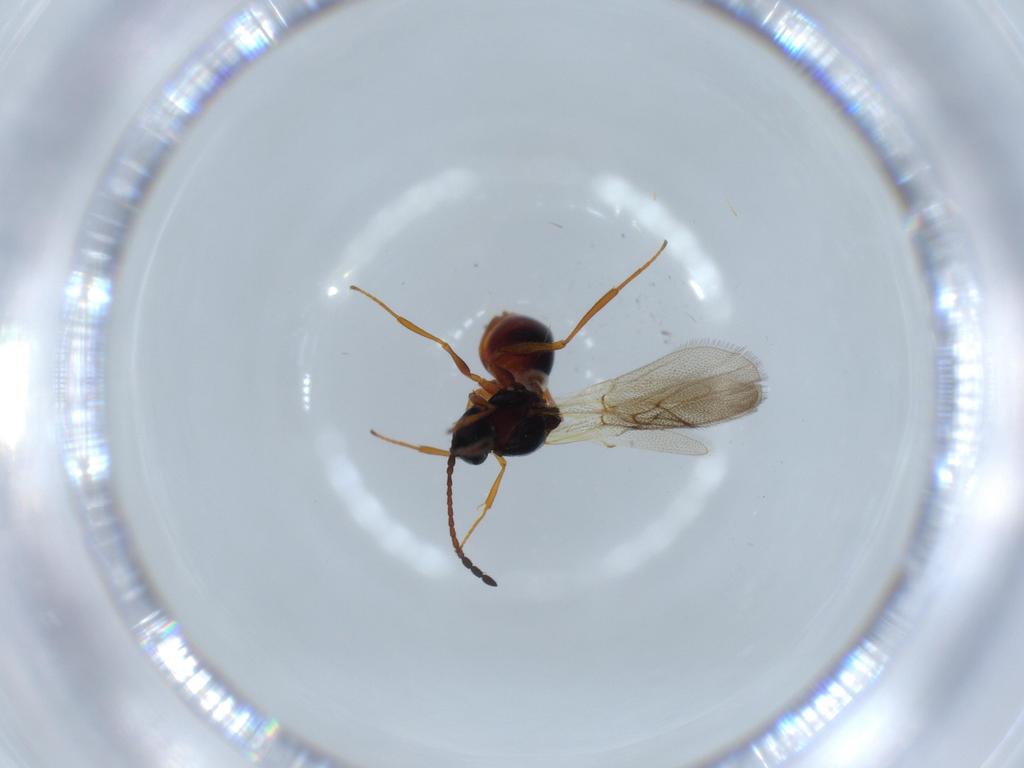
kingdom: Animalia
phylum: Arthropoda
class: Insecta
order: Hymenoptera
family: Figitidae
